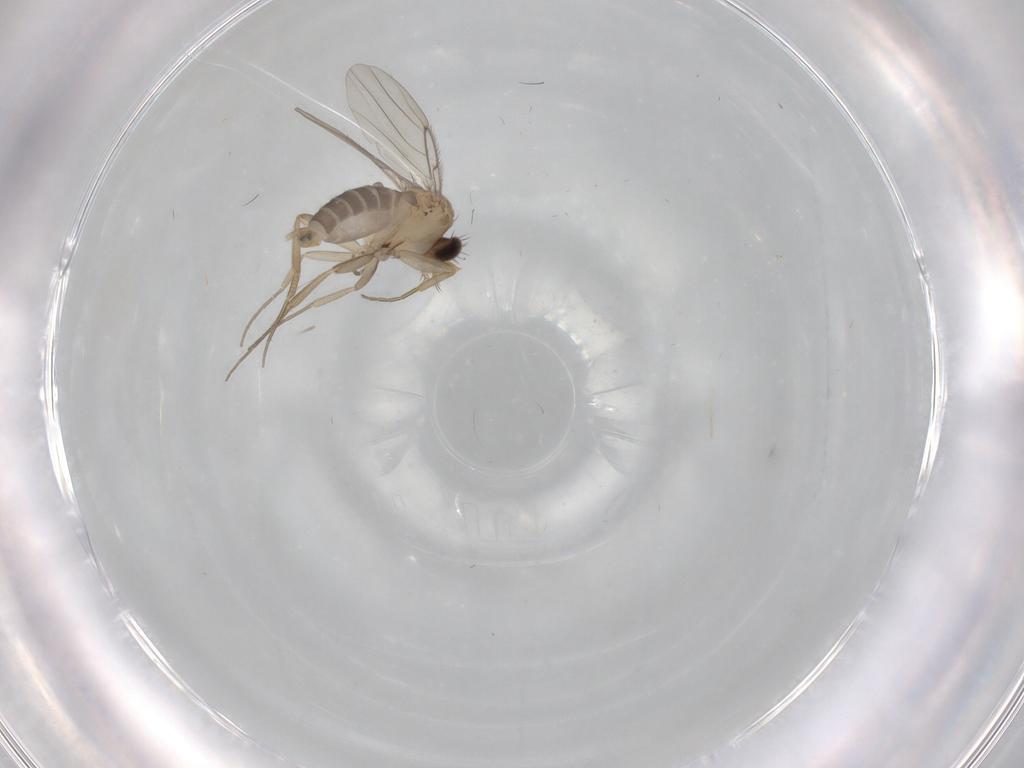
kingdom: Animalia
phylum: Arthropoda
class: Insecta
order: Diptera
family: Phoridae
